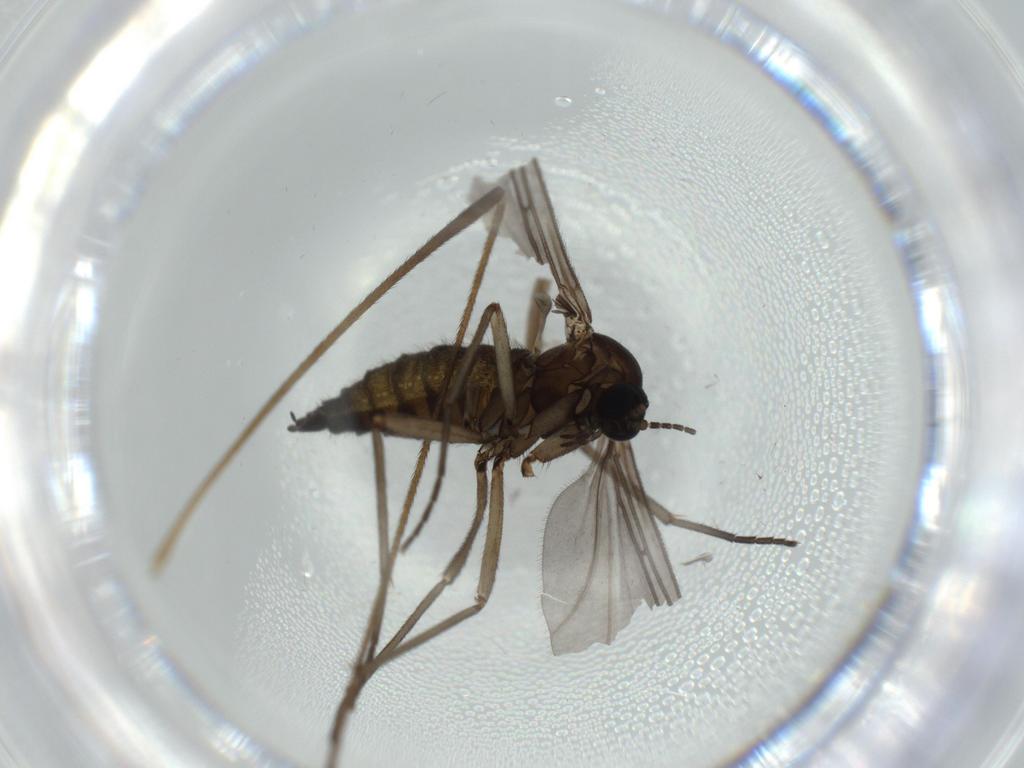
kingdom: Animalia
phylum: Arthropoda
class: Insecta
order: Diptera
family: Sciaridae
